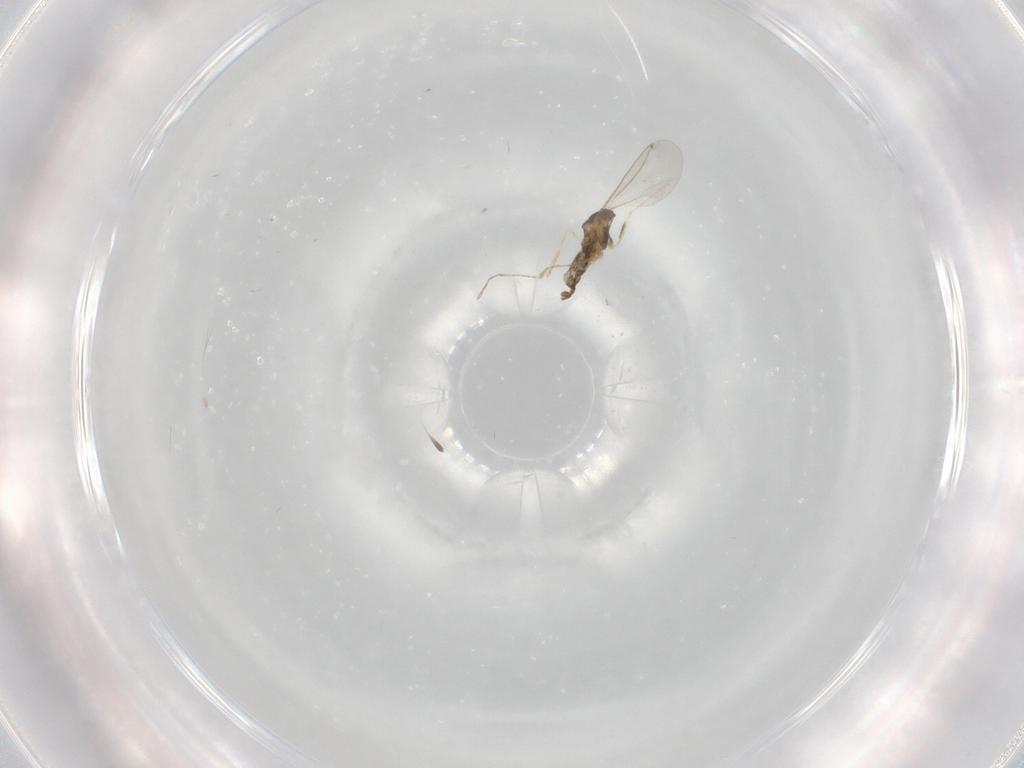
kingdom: Animalia
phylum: Arthropoda
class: Insecta
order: Diptera
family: Cecidomyiidae
